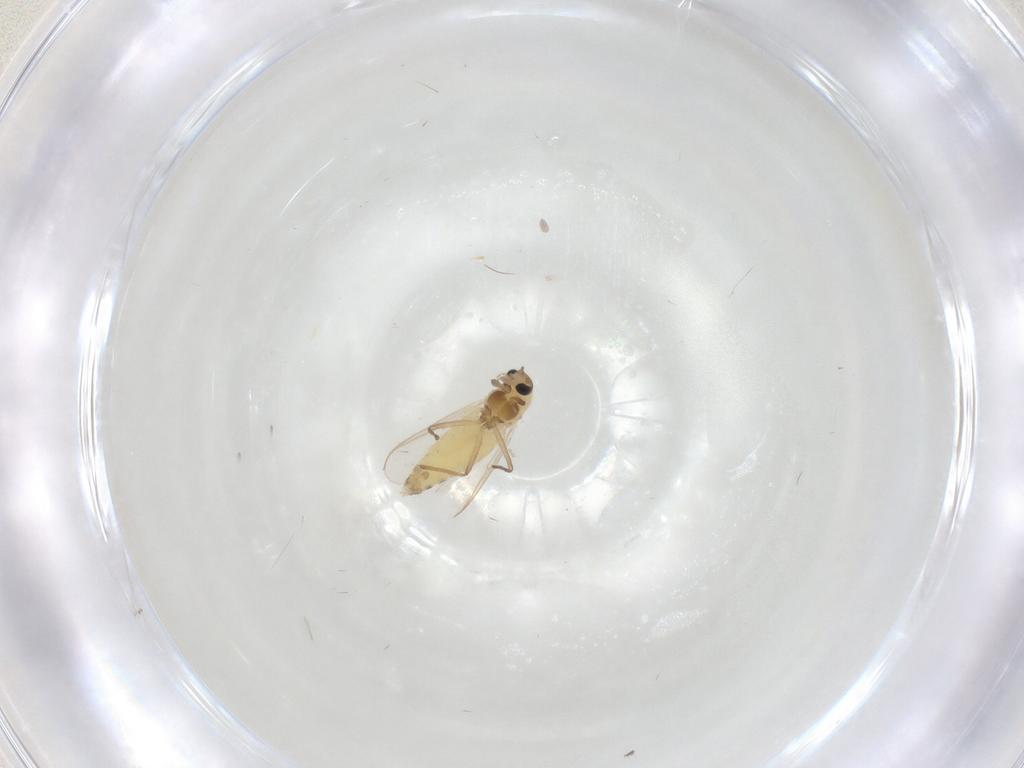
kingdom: Animalia
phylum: Arthropoda
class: Insecta
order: Diptera
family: Chironomidae
